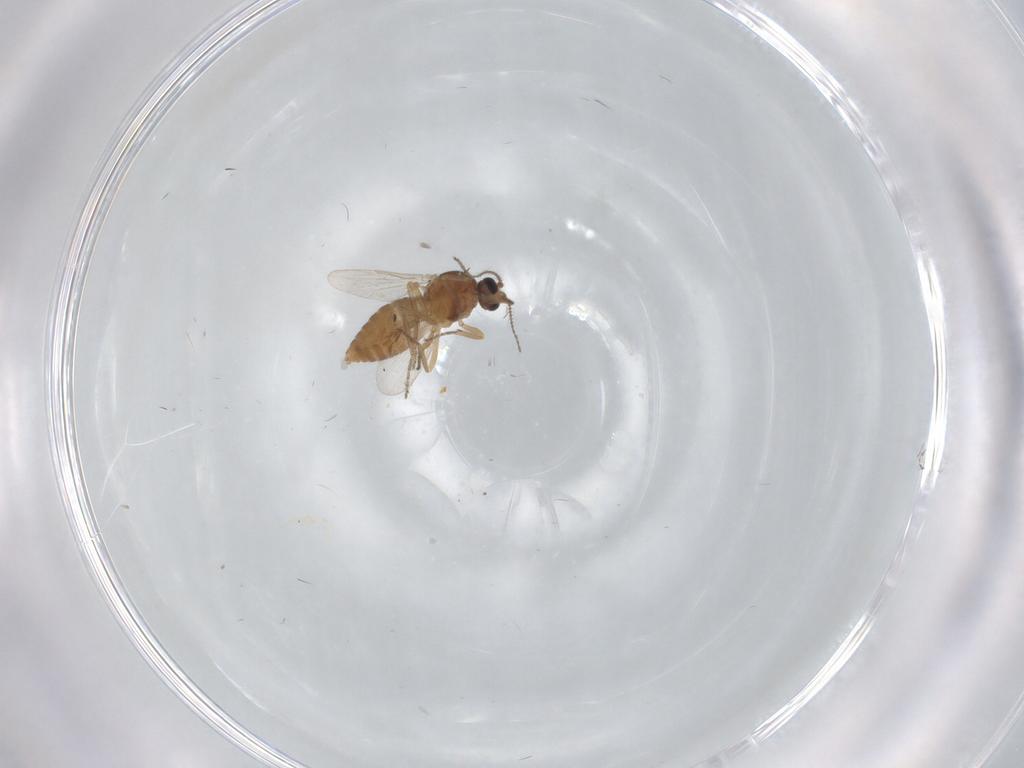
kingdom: Animalia
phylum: Arthropoda
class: Insecta
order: Diptera
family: Ceratopogonidae
